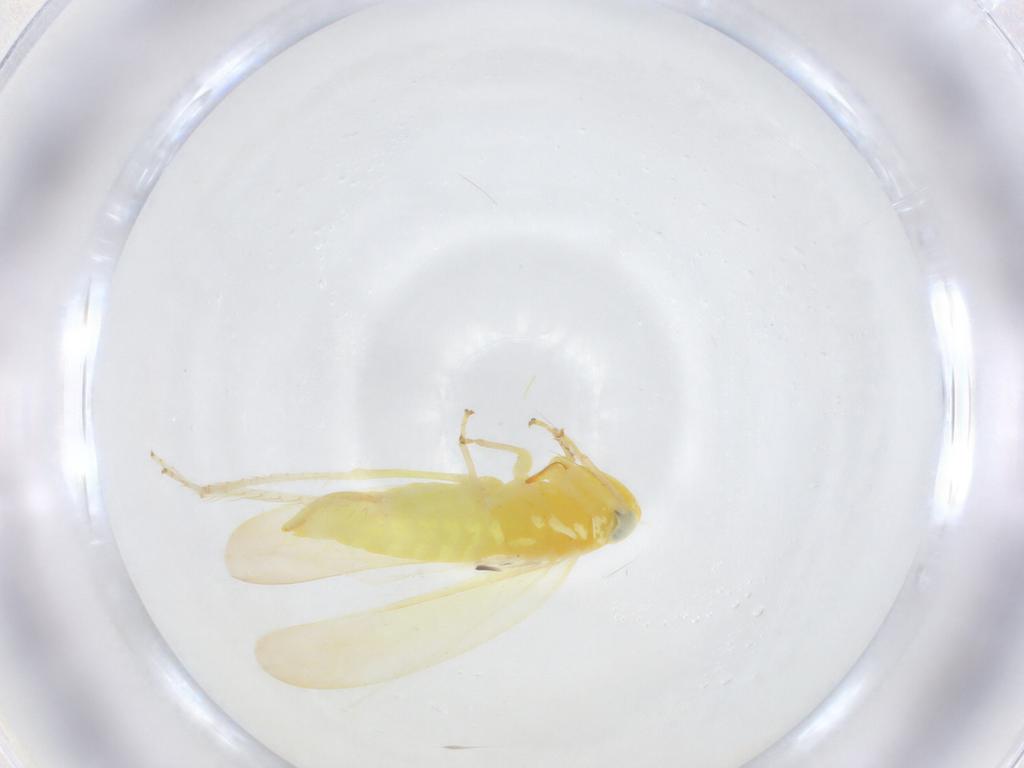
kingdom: Animalia
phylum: Arthropoda
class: Insecta
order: Hemiptera
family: Cicadellidae
